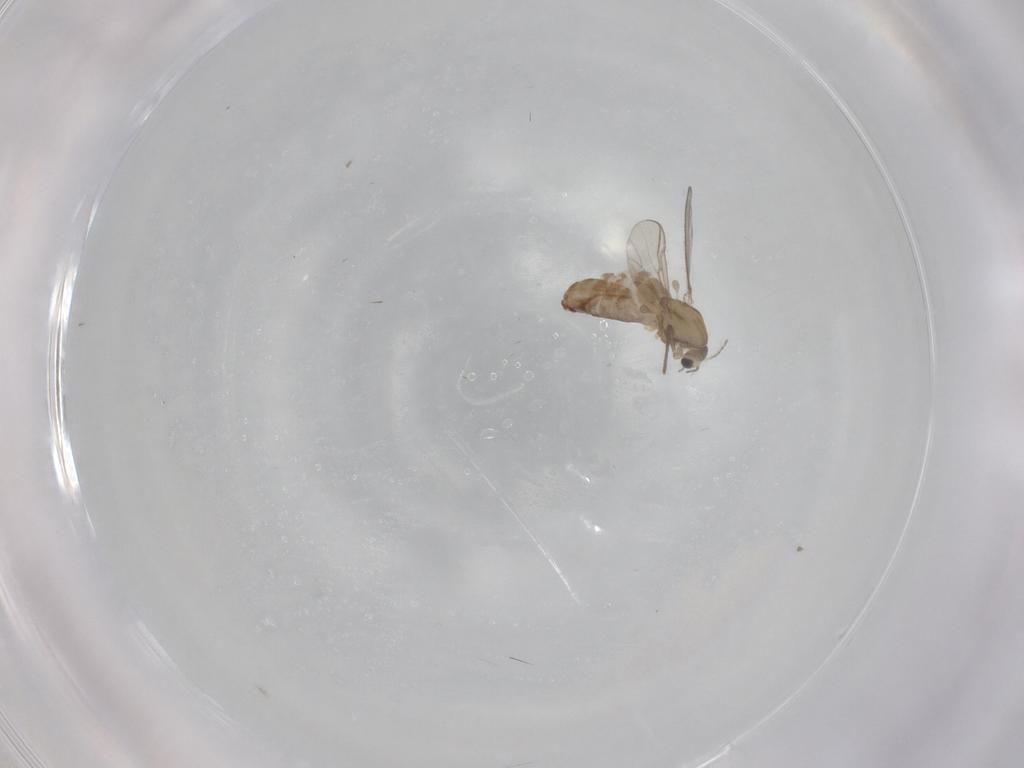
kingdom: Animalia
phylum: Arthropoda
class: Insecta
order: Diptera
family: Chironomidae
